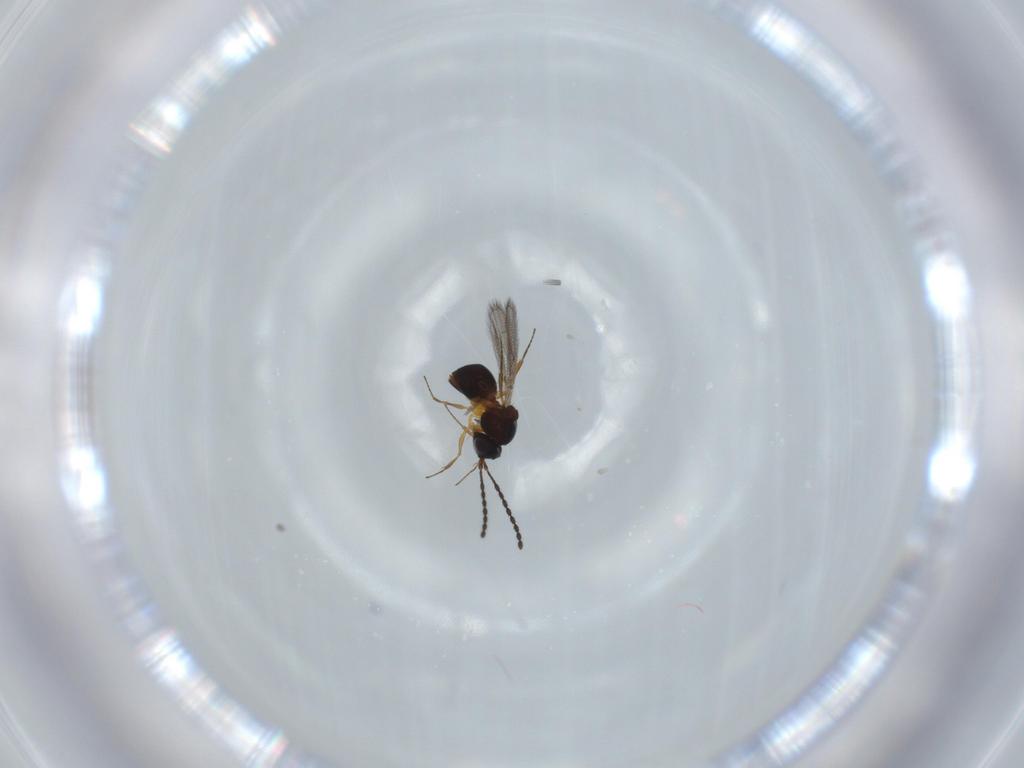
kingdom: Animalia
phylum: Arthropoda
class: Insecta
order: Hymenoptera
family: Figitidae
